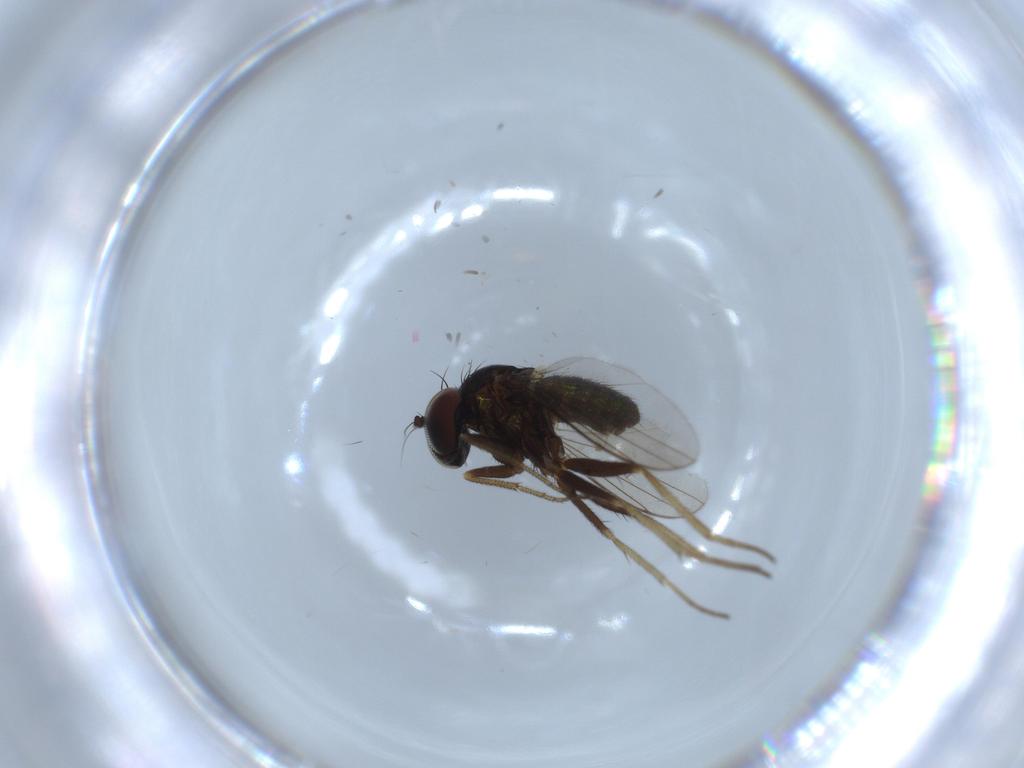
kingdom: Animalia
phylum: Arthropoda
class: Insecta
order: Diptera
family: Dolichopodidae
